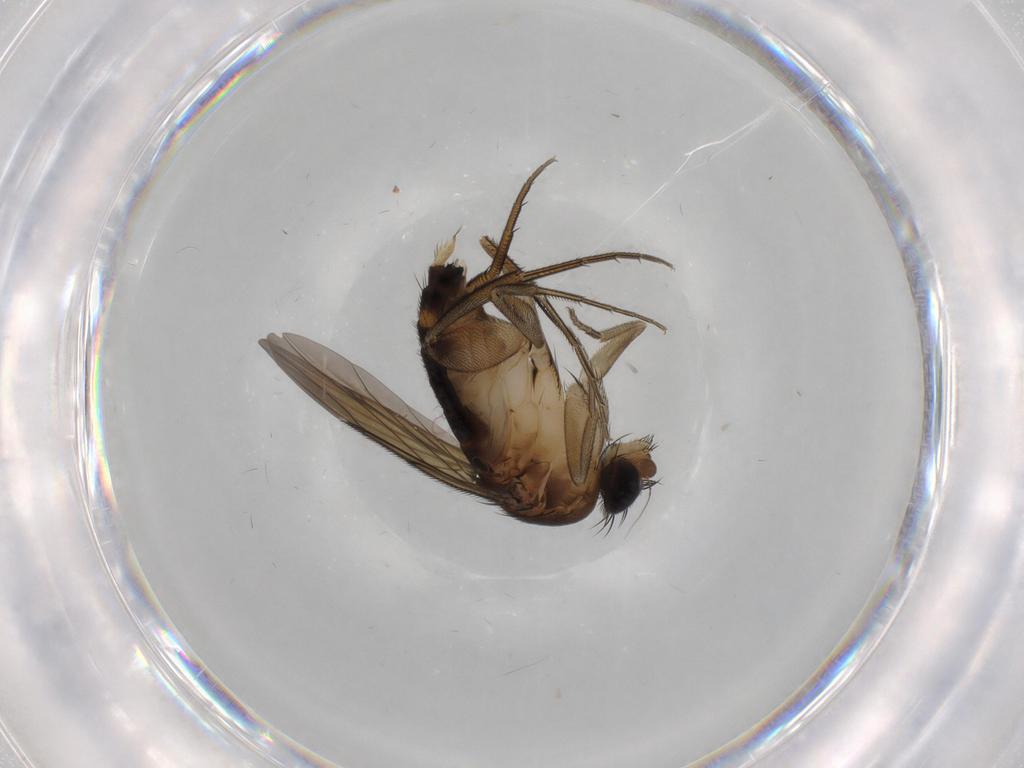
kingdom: Animalia
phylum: Arthropoda
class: Insecta
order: Diptera
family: Phoridae
